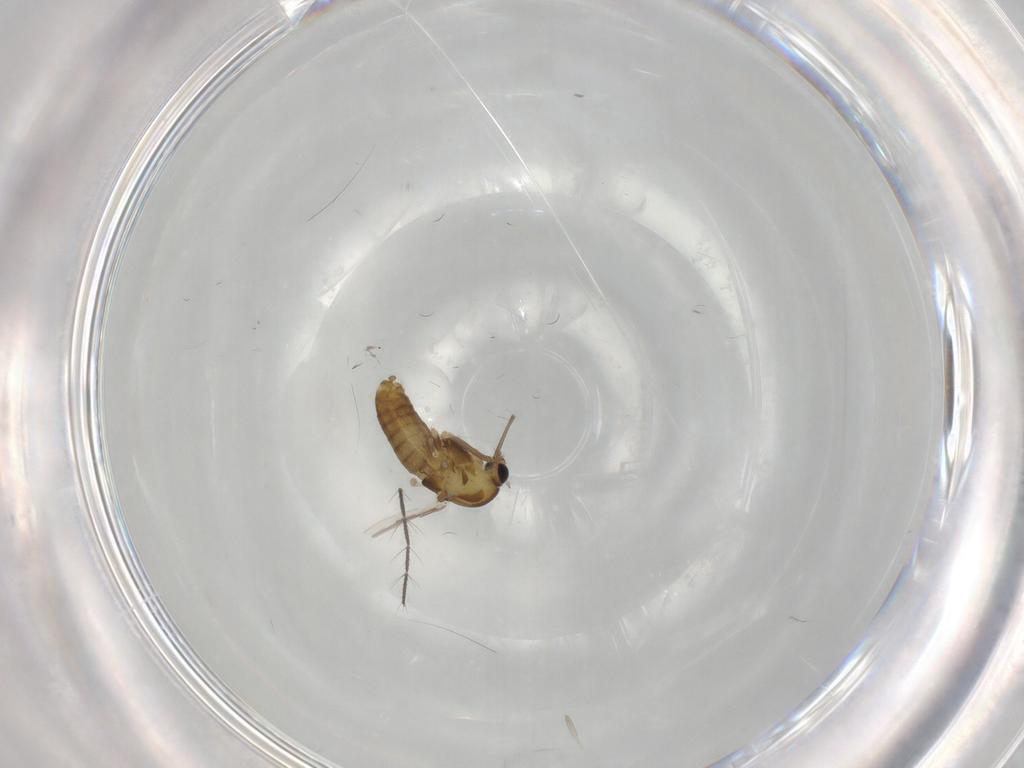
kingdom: Animalia
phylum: Arthropoda
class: Insecta
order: Diptera
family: Chironomidae
